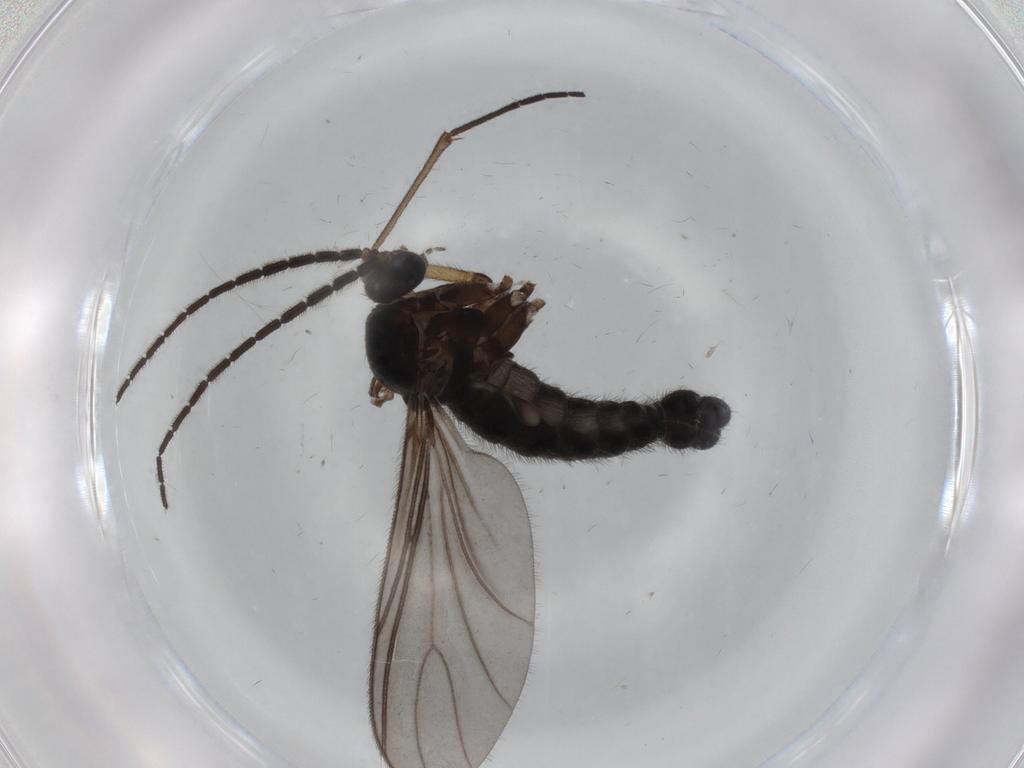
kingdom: Animalia
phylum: Arthropoda
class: Insecta
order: Diptera
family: Sciaridae
